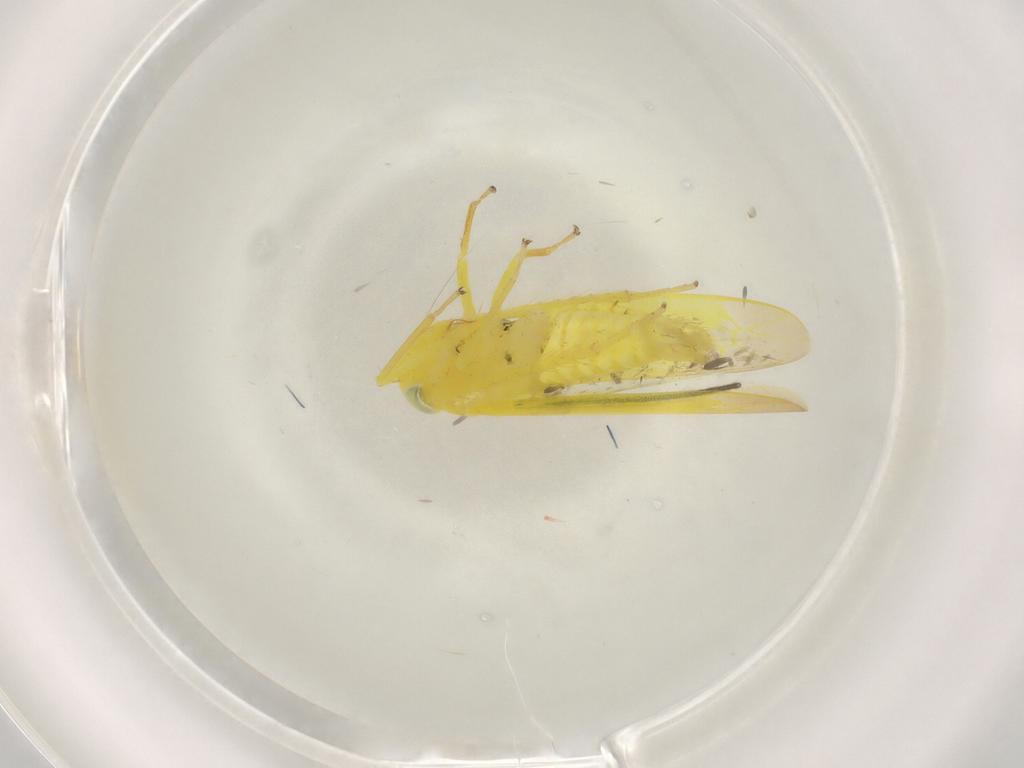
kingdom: Animalia
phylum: Arthropoda
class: Insecta
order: Hemiptera
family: Cicadellidae
